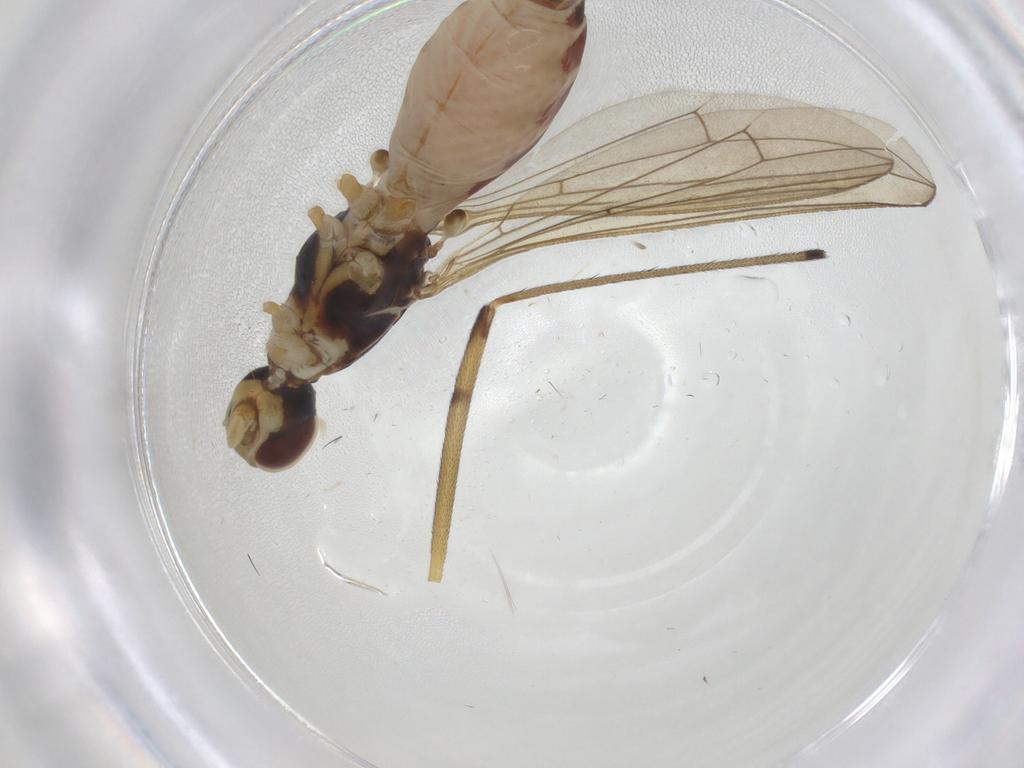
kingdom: Animalia
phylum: Arthropoda
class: Insecta
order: Diptera
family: Micropezidae
